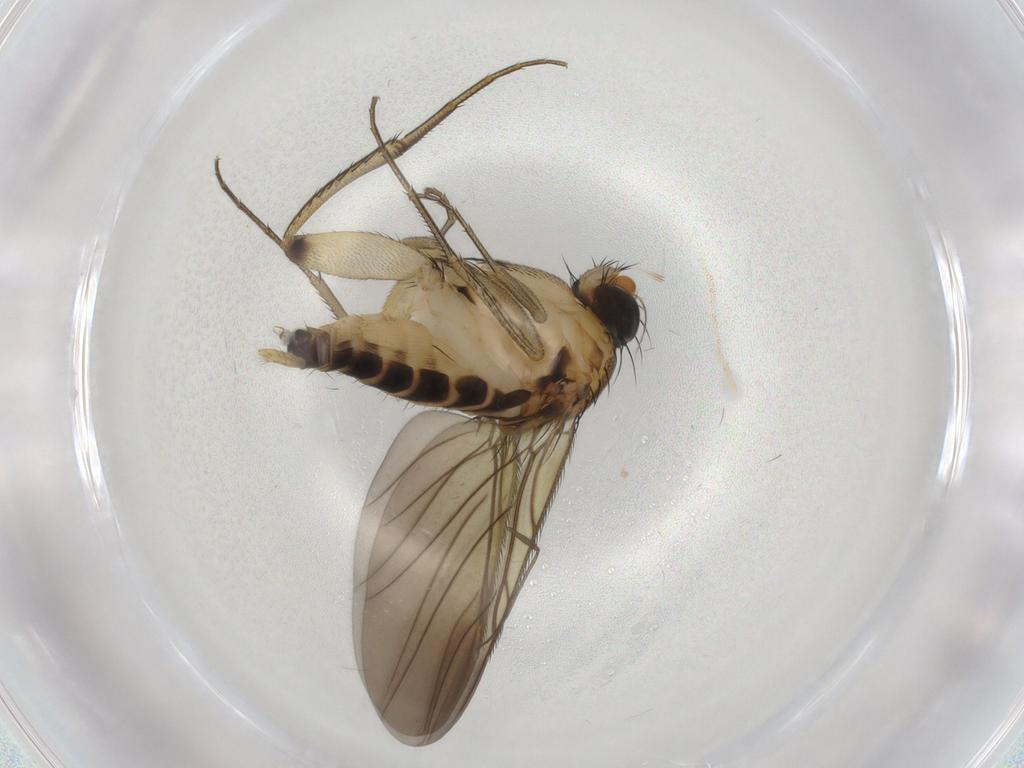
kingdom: Animalia
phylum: Arthropoda
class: Insecta
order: Diptera
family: Phoridae
